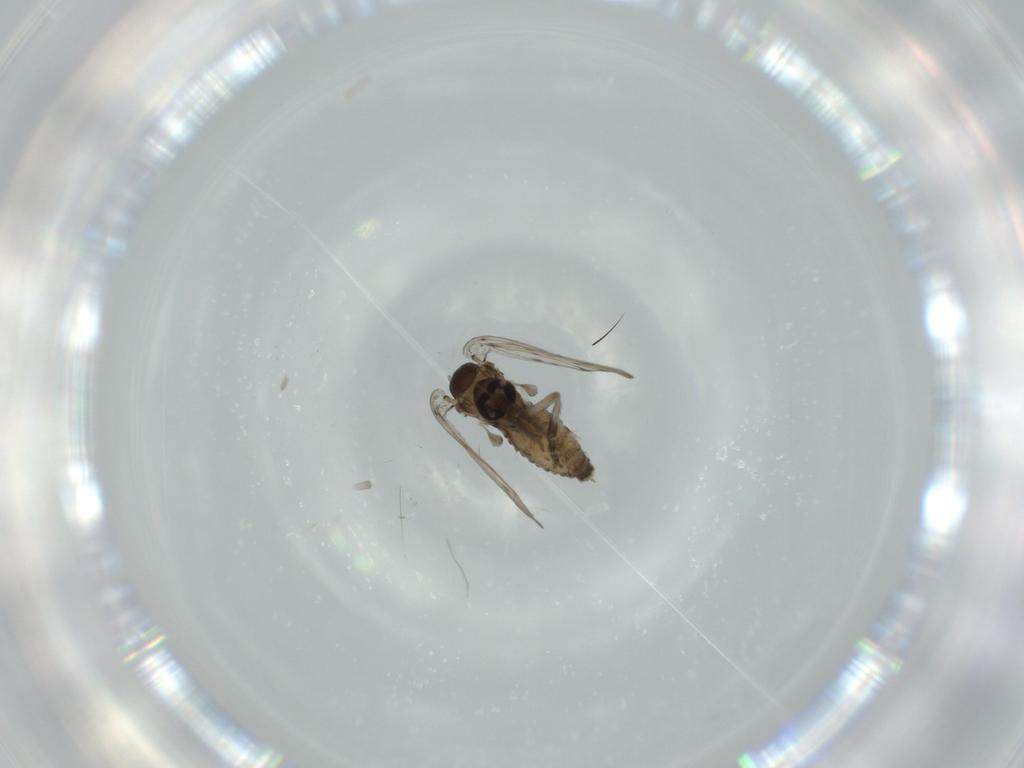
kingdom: Animalia
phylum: Arthropoda
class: Insecta
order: Diptera
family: Psychodidae
